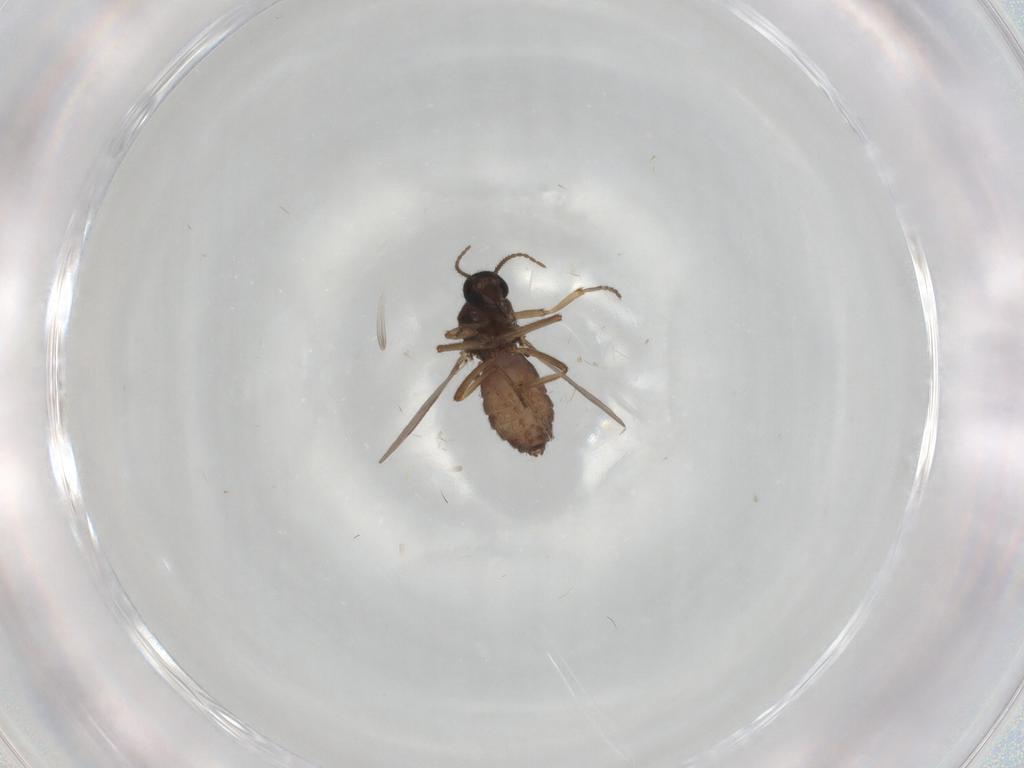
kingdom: Animalia
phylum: Arthropoda
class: Insecta
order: Diptera
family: Ceratopogonidae
